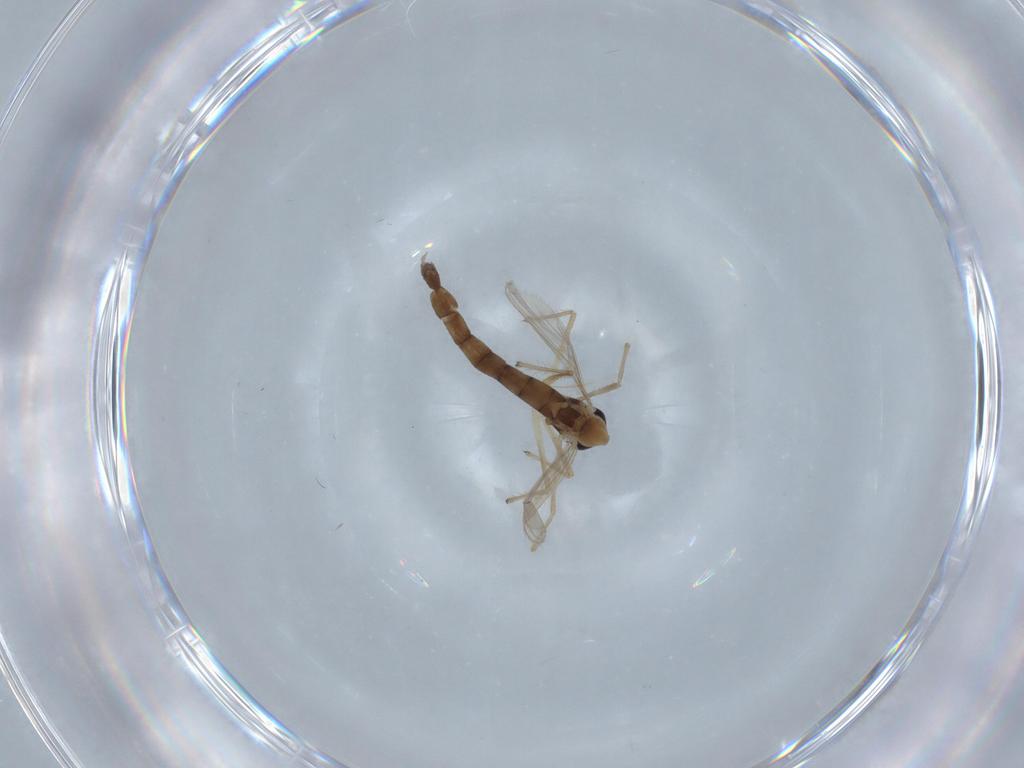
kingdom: Animalia
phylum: Arthropoda
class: Insecta
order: Diptera
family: Chironomidae
